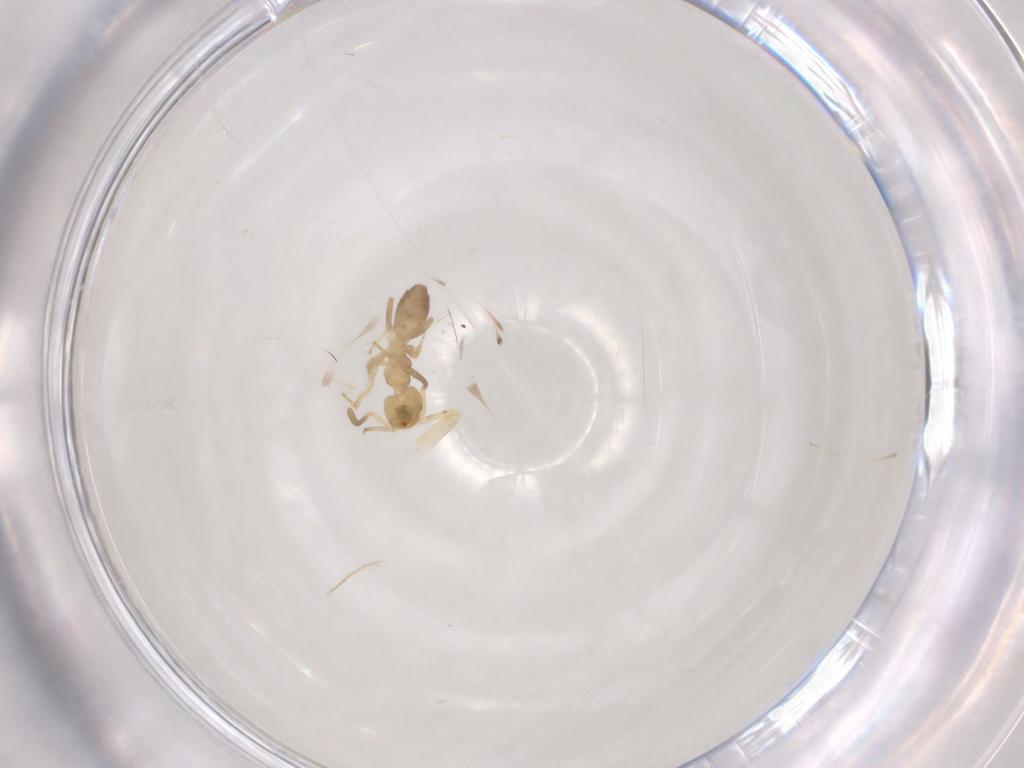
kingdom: Animalia
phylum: Arthropoda
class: Insecta
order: Hemiptera
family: Miridae
